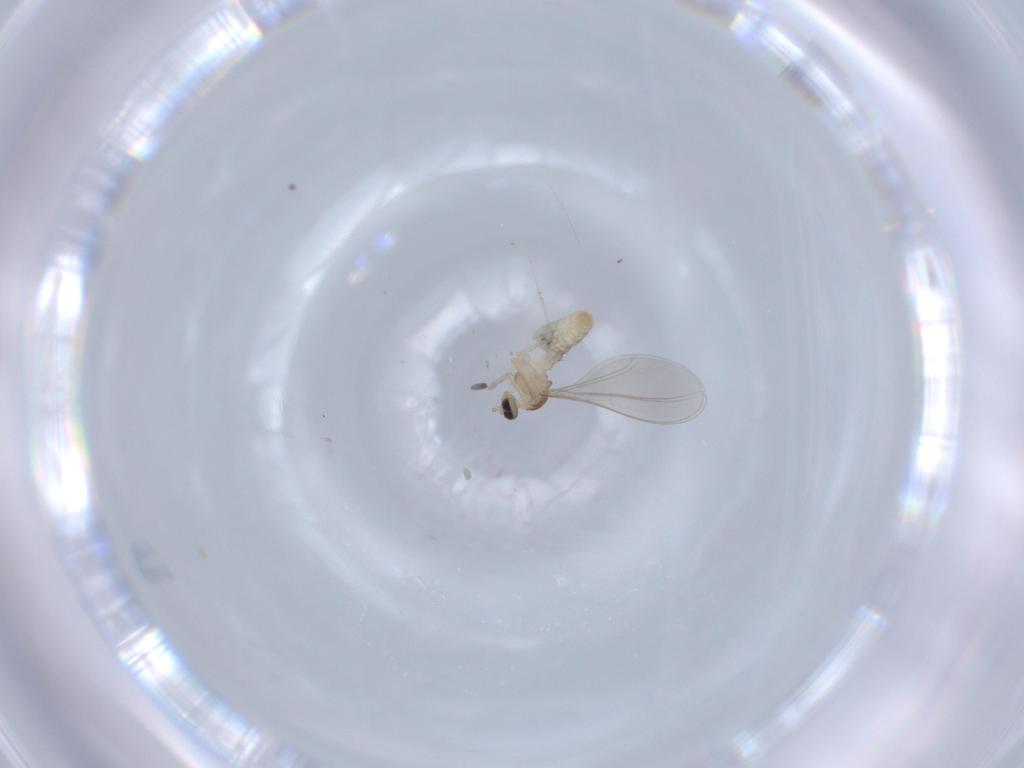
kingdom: Animalia
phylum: Arthropoda
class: Insecta
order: Diptera
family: Cecidomyiidae
